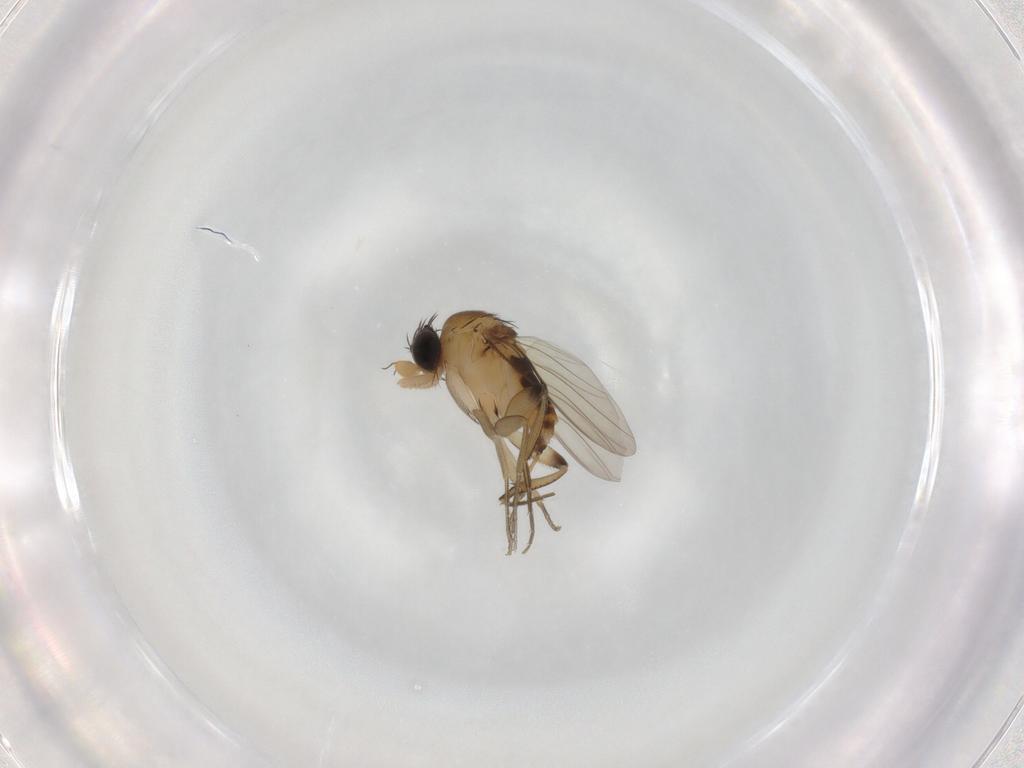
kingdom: Animalia
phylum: Arthropoda
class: Insecta
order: Diptera
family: Phoridae
